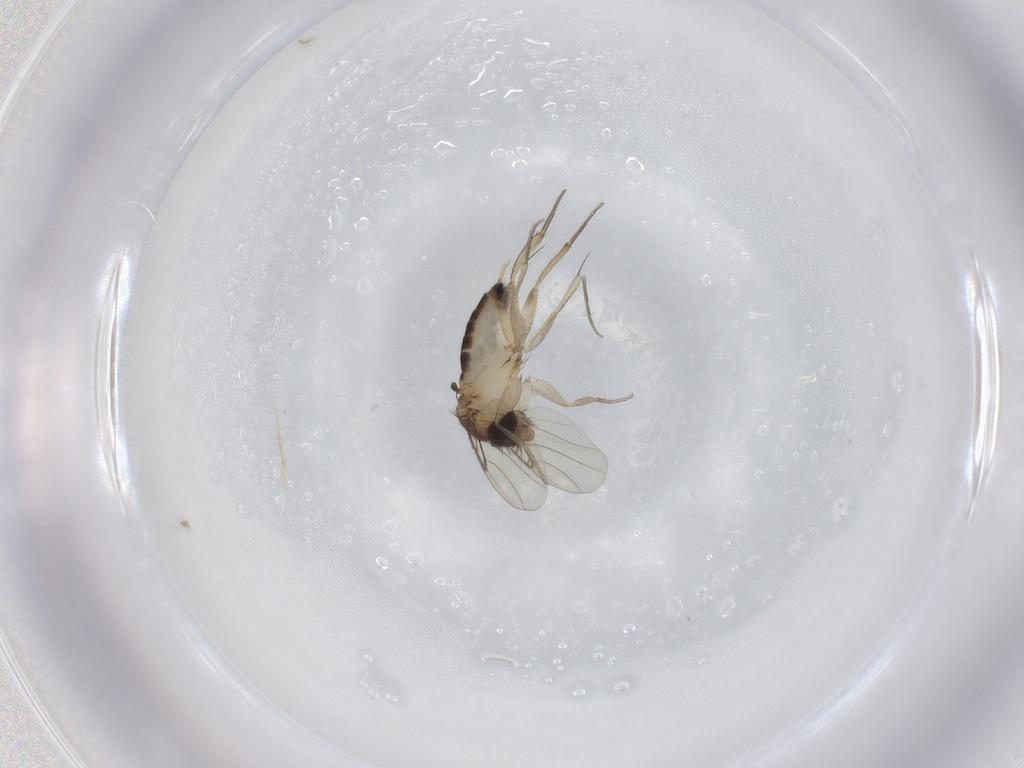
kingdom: Animalia
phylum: Arthropoda
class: Insecta
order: Diptera
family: Phoridae
